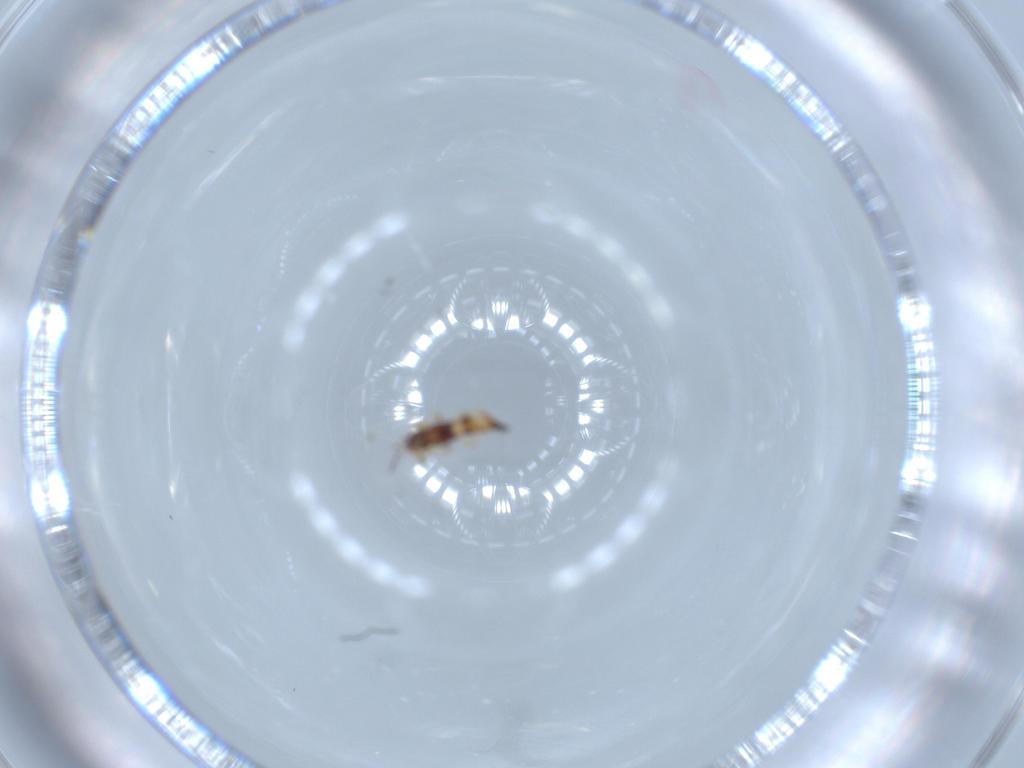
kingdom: Animalia
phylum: Arthropoda
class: Insecta
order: Thysanoptera
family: Phlaeothripidae
